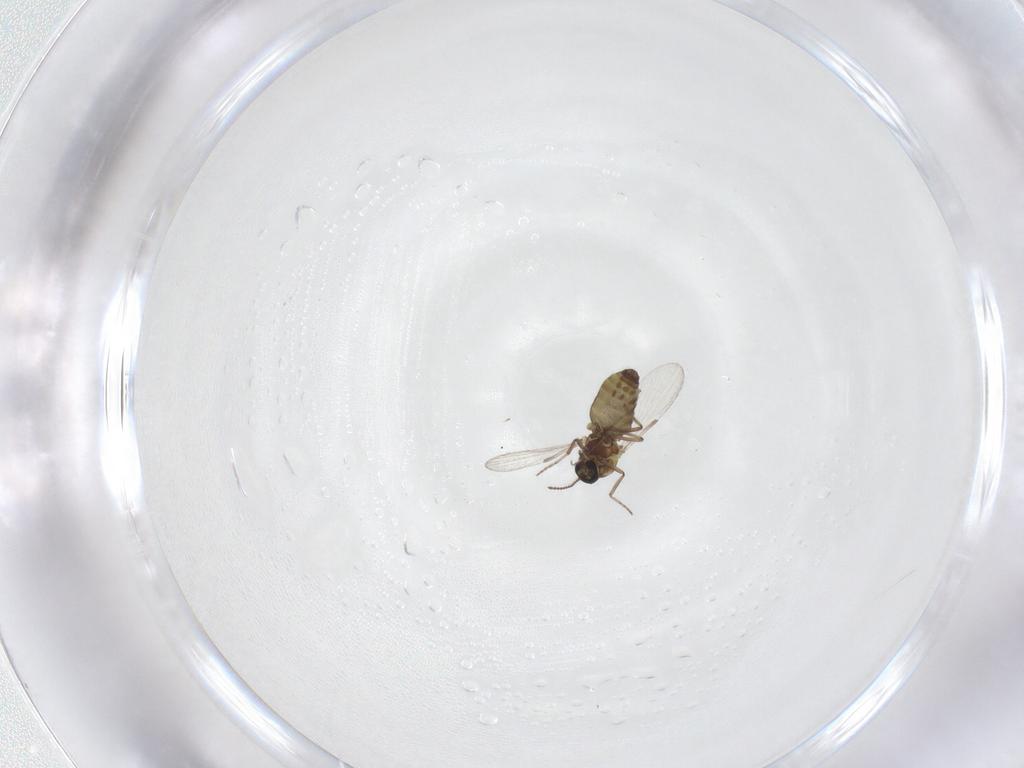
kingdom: Animalia
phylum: Arthropoda
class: Insecta
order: Diptera
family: Ceratopogonidae
